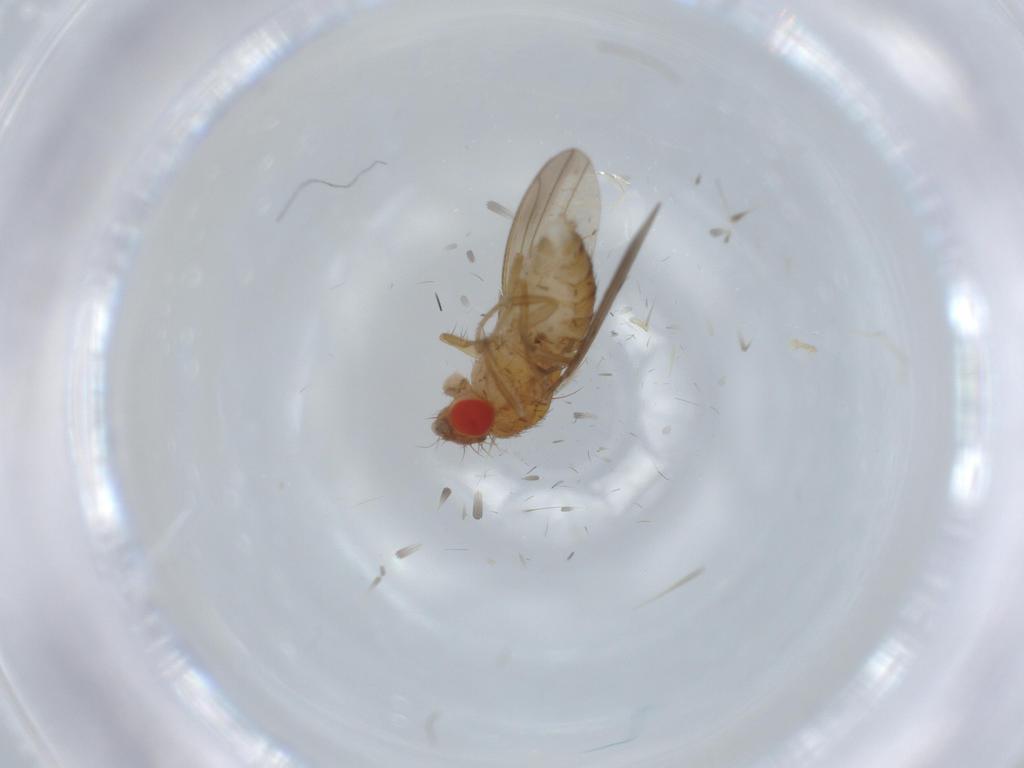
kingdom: Animalia
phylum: Arthropoda
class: Insecta
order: Diptera
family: Drosophilidae
